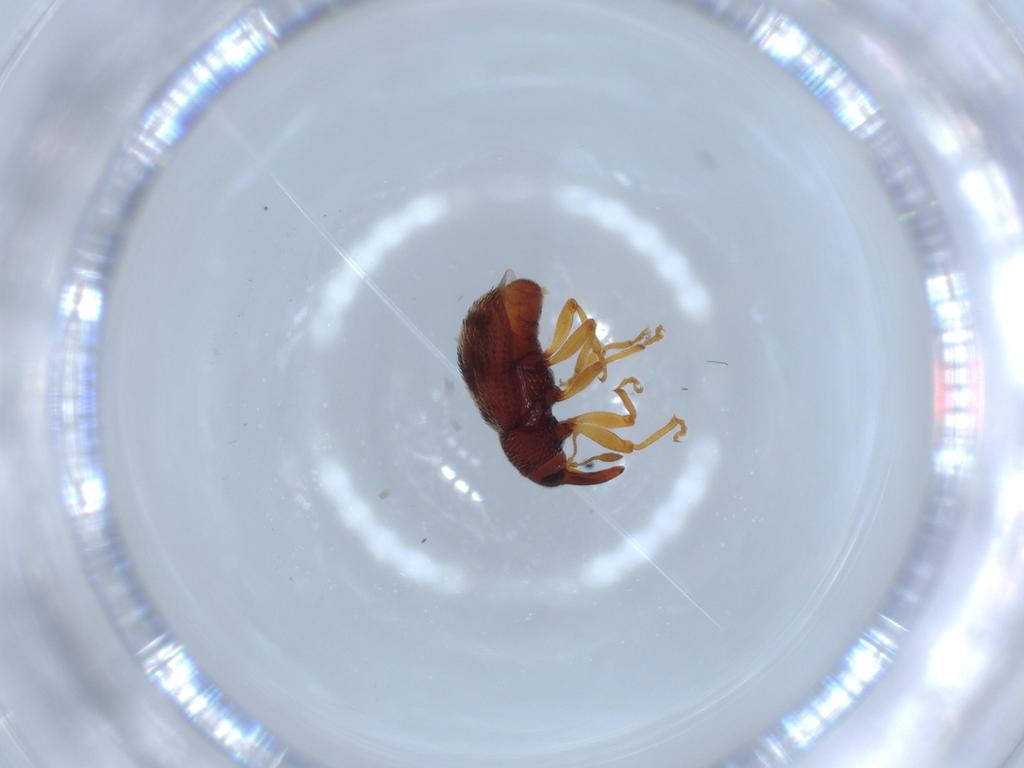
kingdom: Animalia
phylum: Arthropoda
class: Insecta
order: Coleoptera
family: Curculionidae
